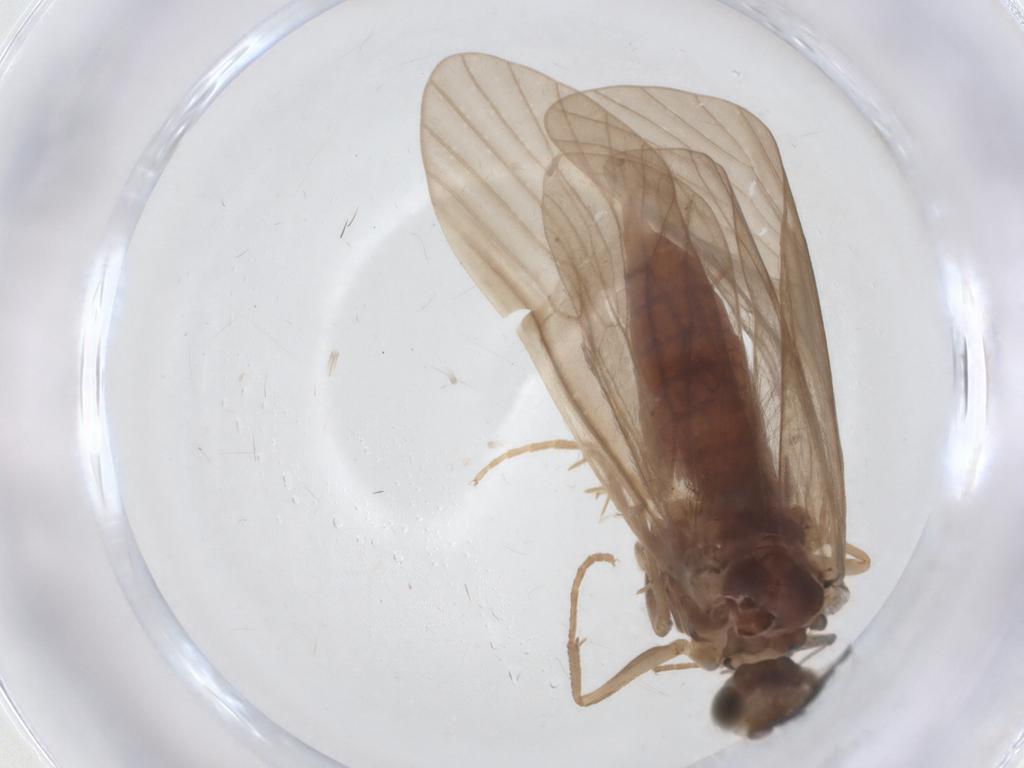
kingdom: Animalia
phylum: Arthropoda
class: Insecta
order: Trichoptera
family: Psychomyiidae
